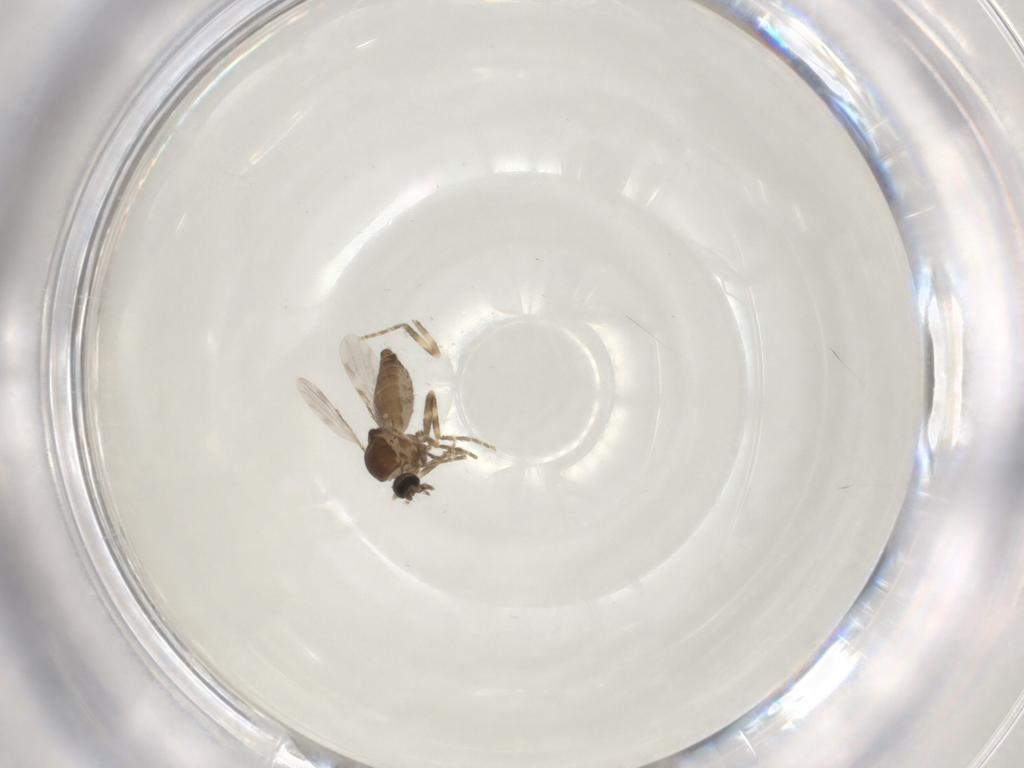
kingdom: Animalia
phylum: Arthropoda
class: Insecta
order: Diptera
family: Ceratopogonidae
